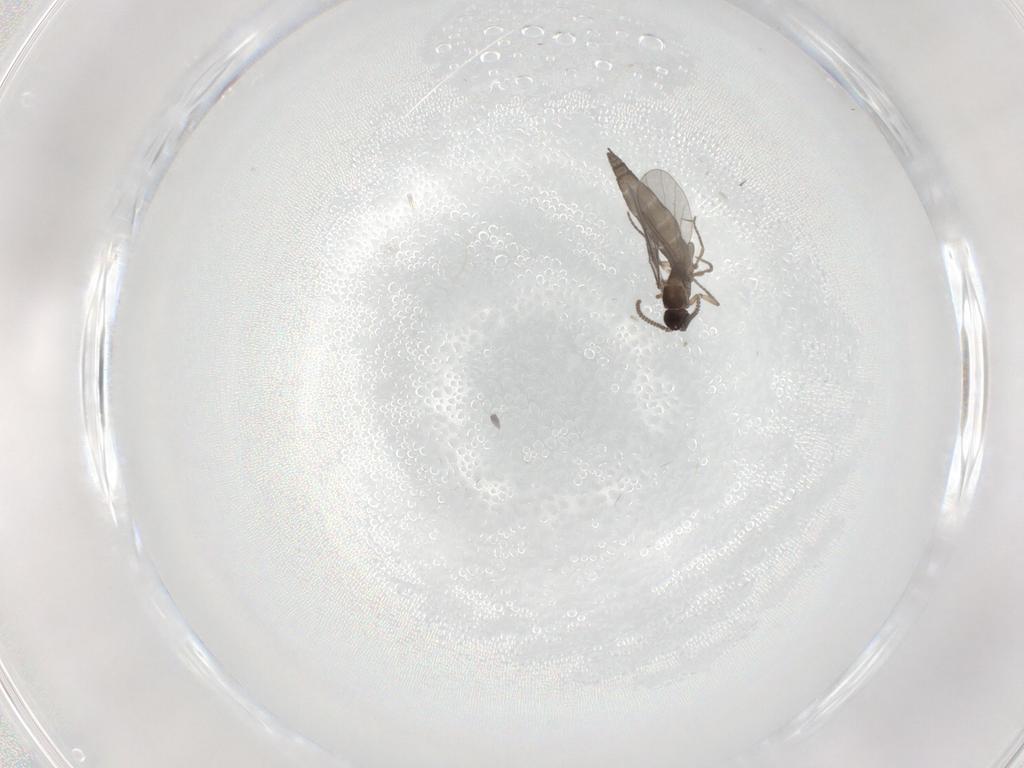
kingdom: Animalia
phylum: Arthropoda
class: Insecta
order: Diptera
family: Sciaridae
